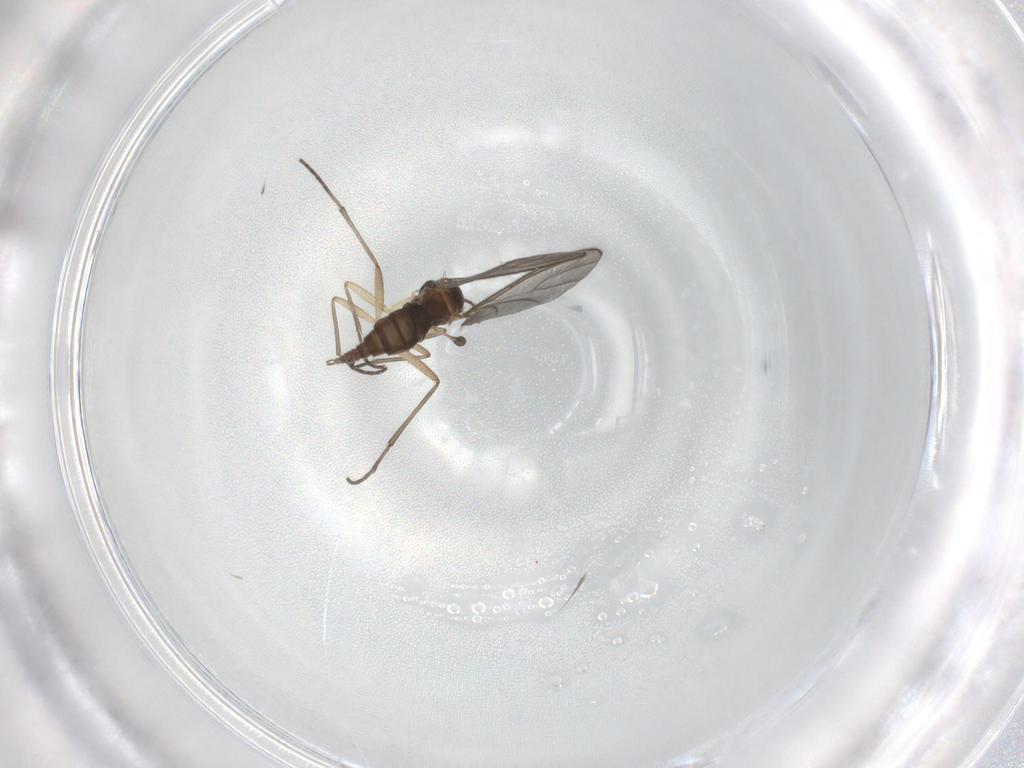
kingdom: Animalia
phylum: Arthropoda
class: Insecta
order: Diptera
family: Sciaridae
